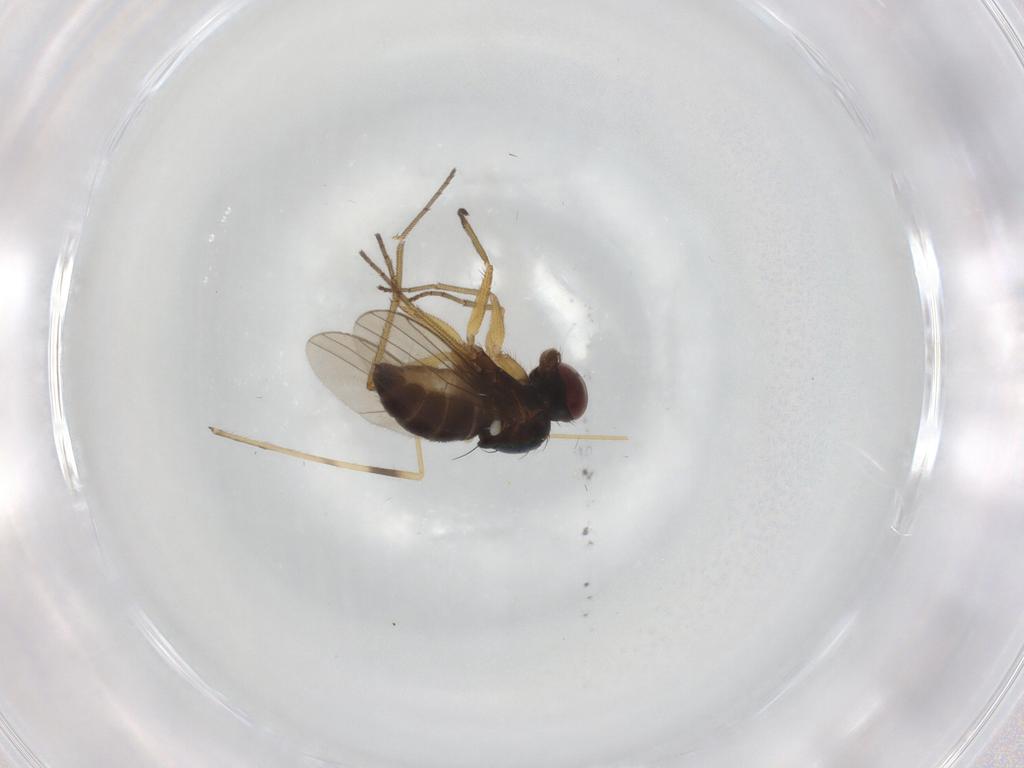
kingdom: Animalia
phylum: Arthropoda
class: Insecta
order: Diptera
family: Dolichopodidae
